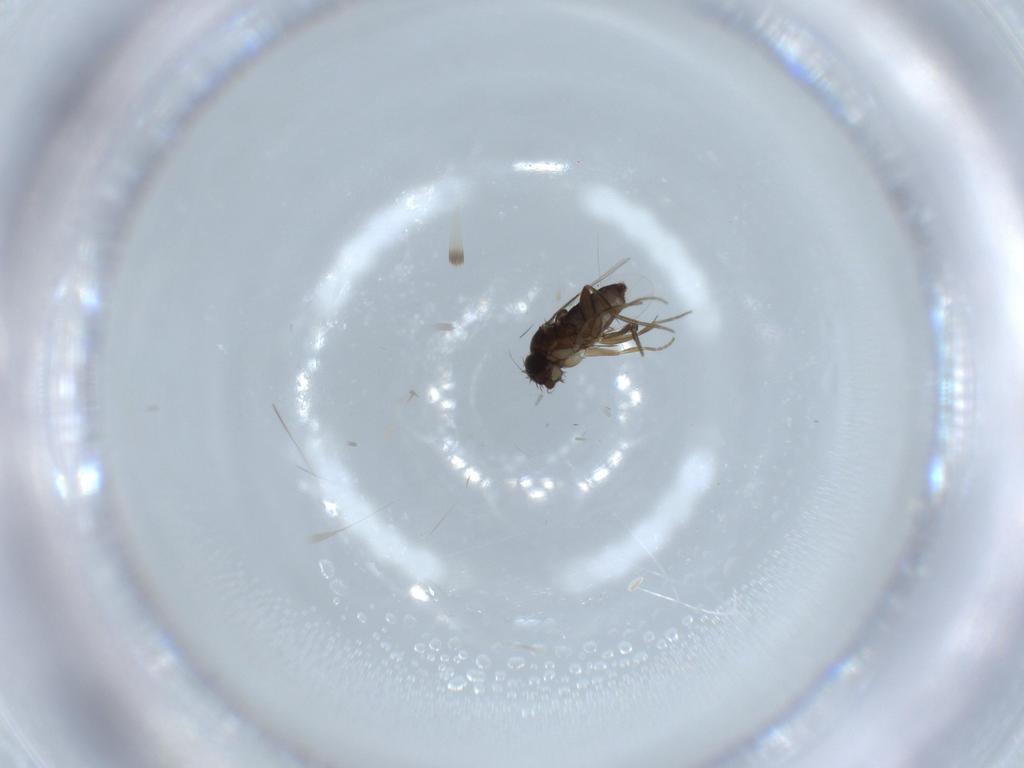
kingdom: Animalia
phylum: Arthropoda
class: Insecta
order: Diptera
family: Phoridae
